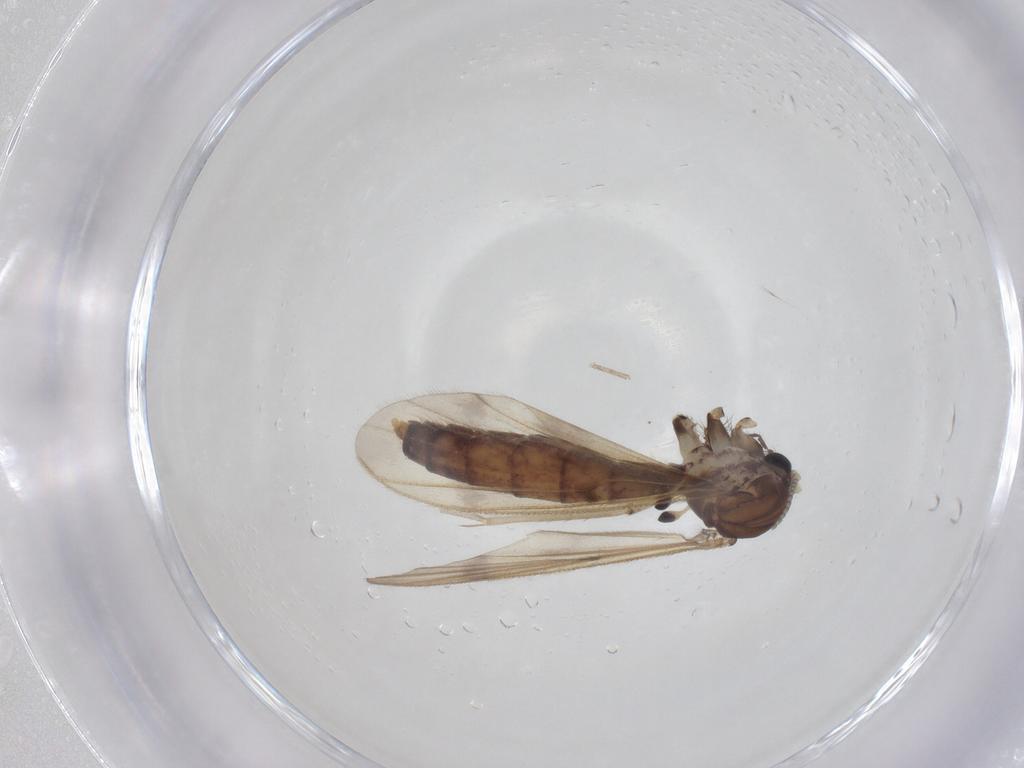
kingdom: Animalia
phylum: Arthropoda
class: Insecta
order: Diptera
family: Mycetophilidae
